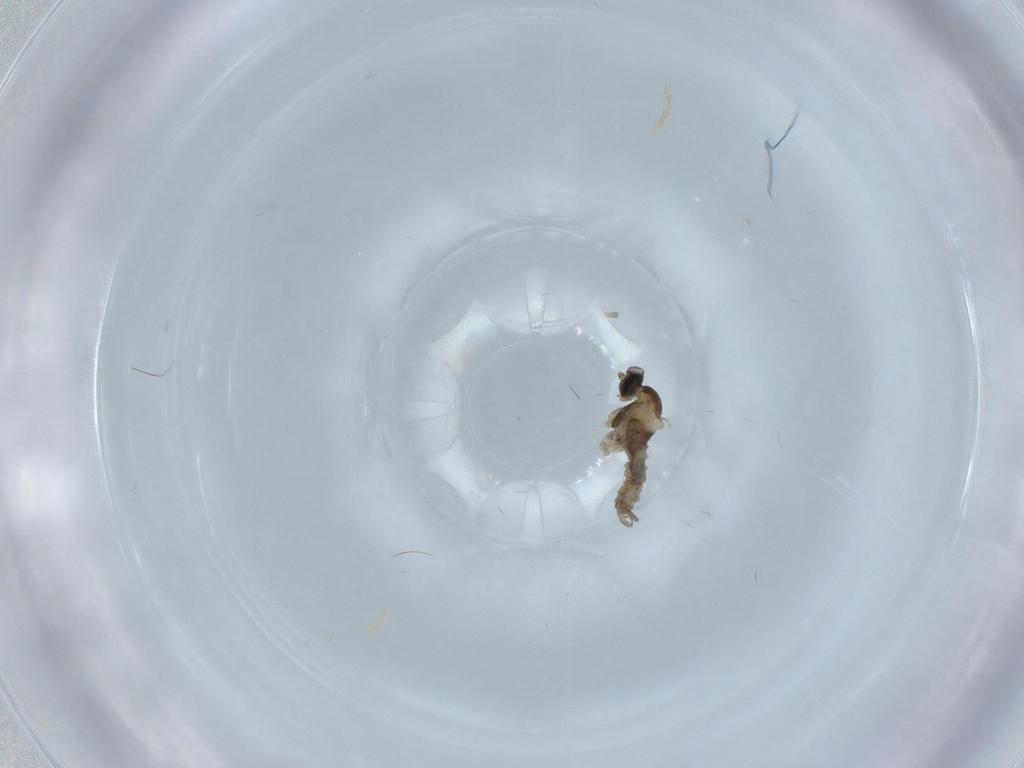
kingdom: Animalia
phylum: Arthropoda
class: Insecta
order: Diptera
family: Cecidomyiidae
